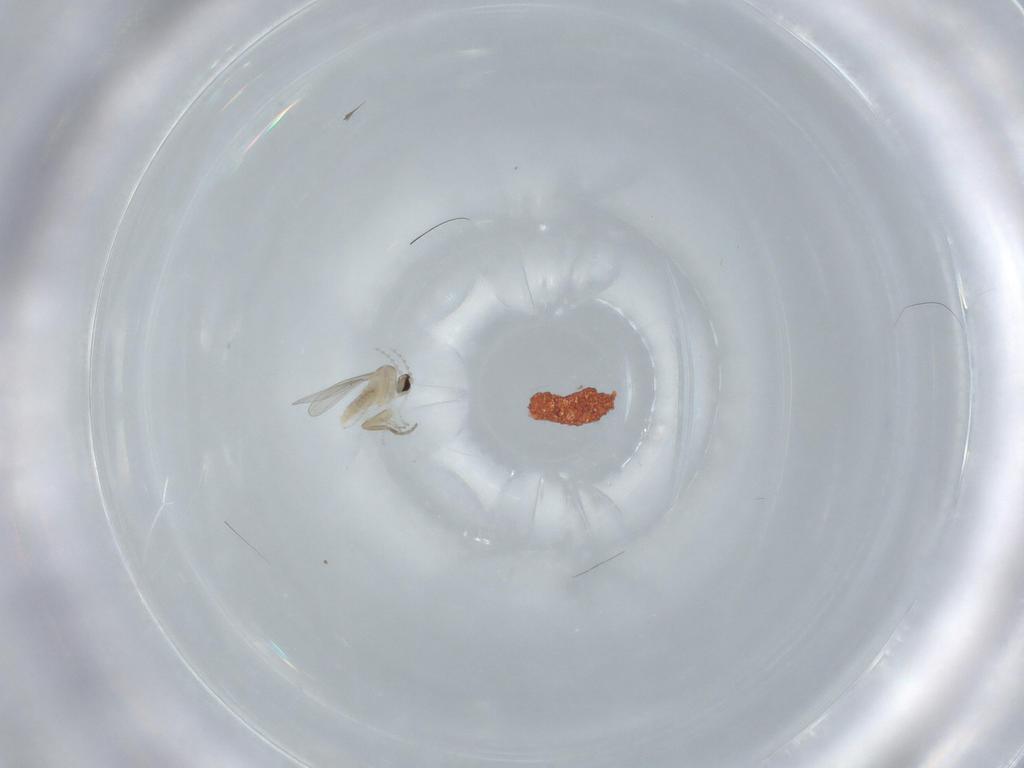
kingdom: Animalia
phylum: Arthropoda
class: Insecta
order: Diptera
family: Cecidomyiidae
